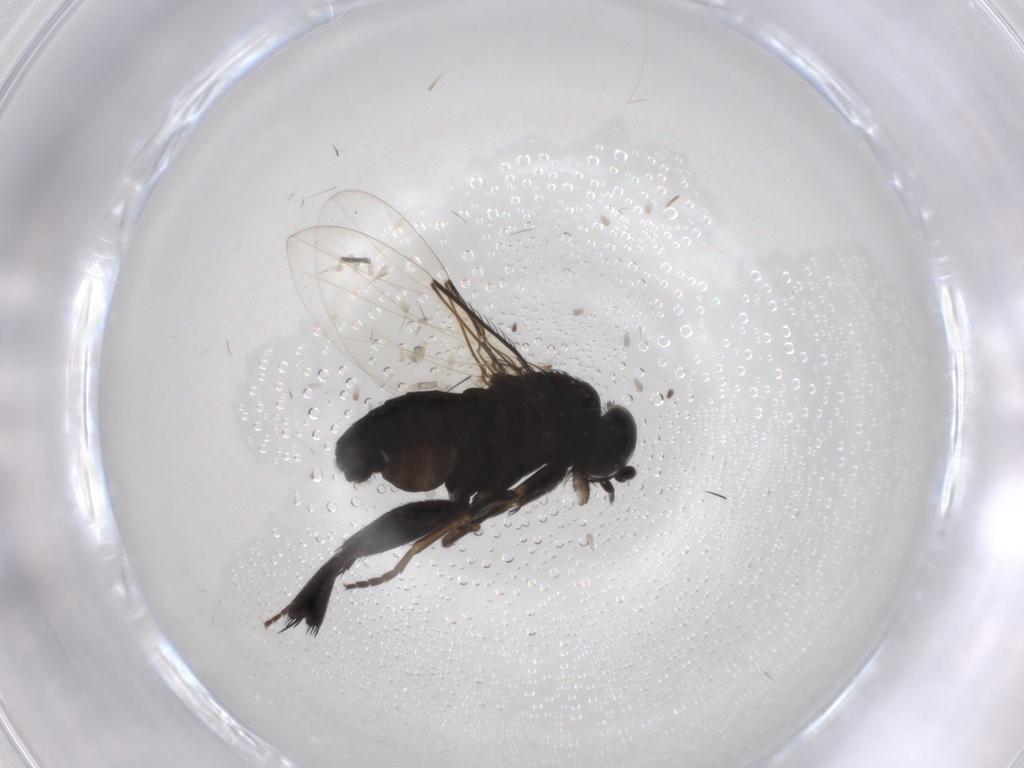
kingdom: Animalia
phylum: Arthropoda
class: Insecta
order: Diptera
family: Phoridae
